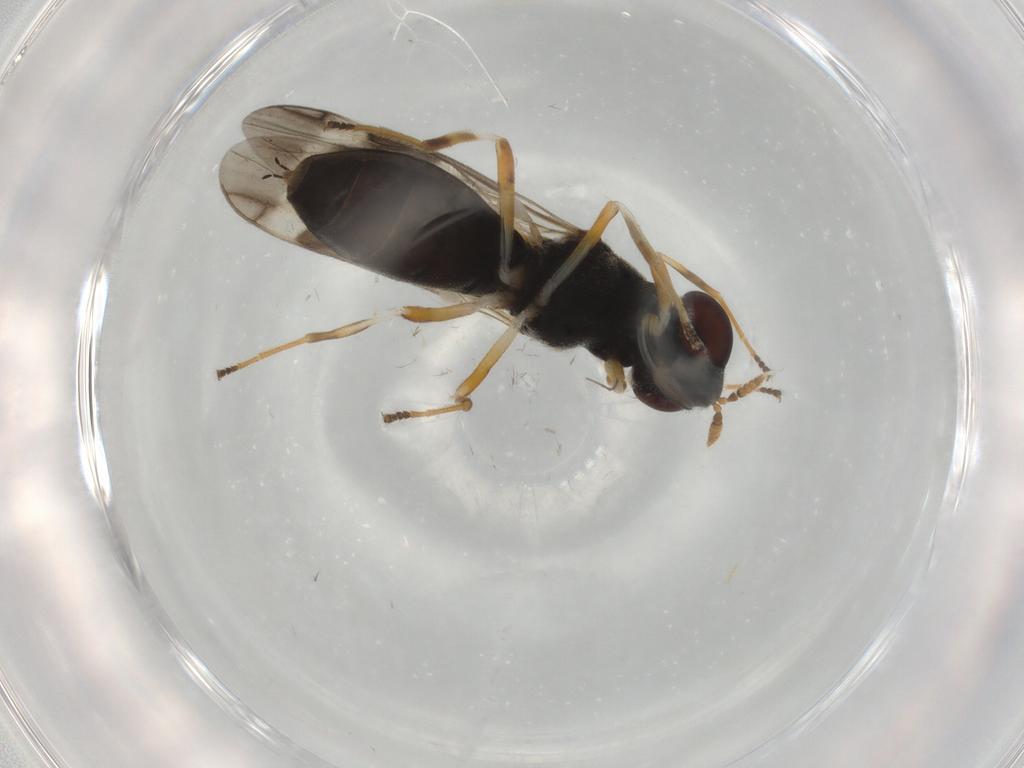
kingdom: Animalia
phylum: Arthropoda
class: Insecta
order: Diptera
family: Stratiomyidae
